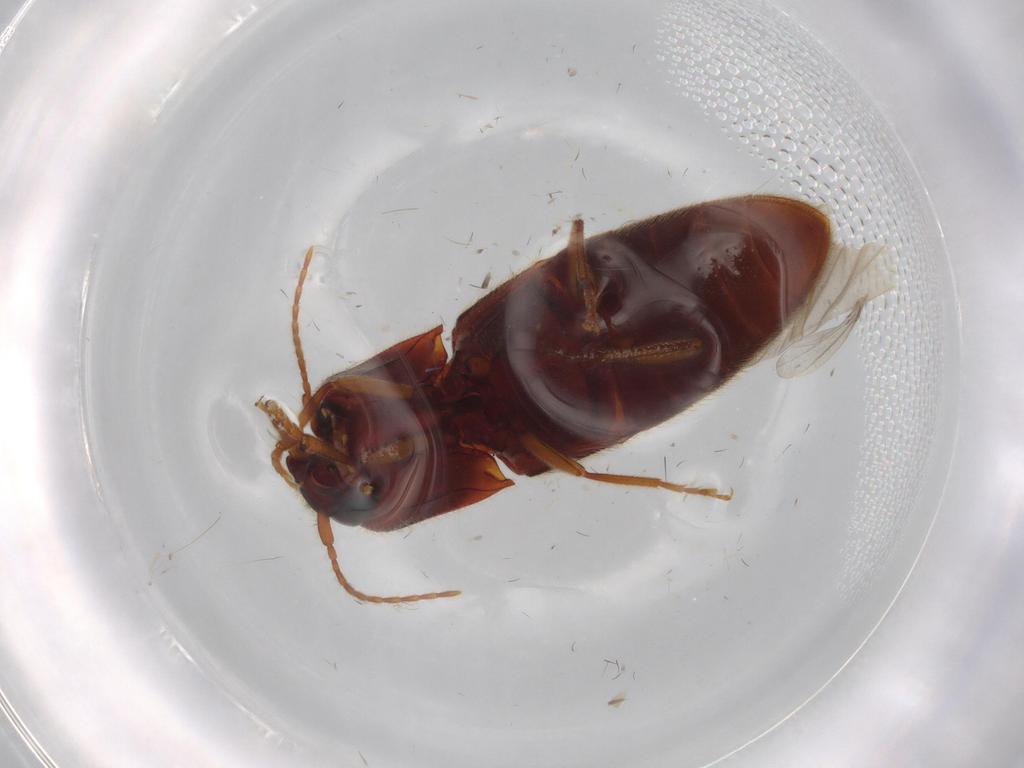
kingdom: Animalia
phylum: Arthropoda
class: Insecta
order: Coleoptera
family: Elateridae
